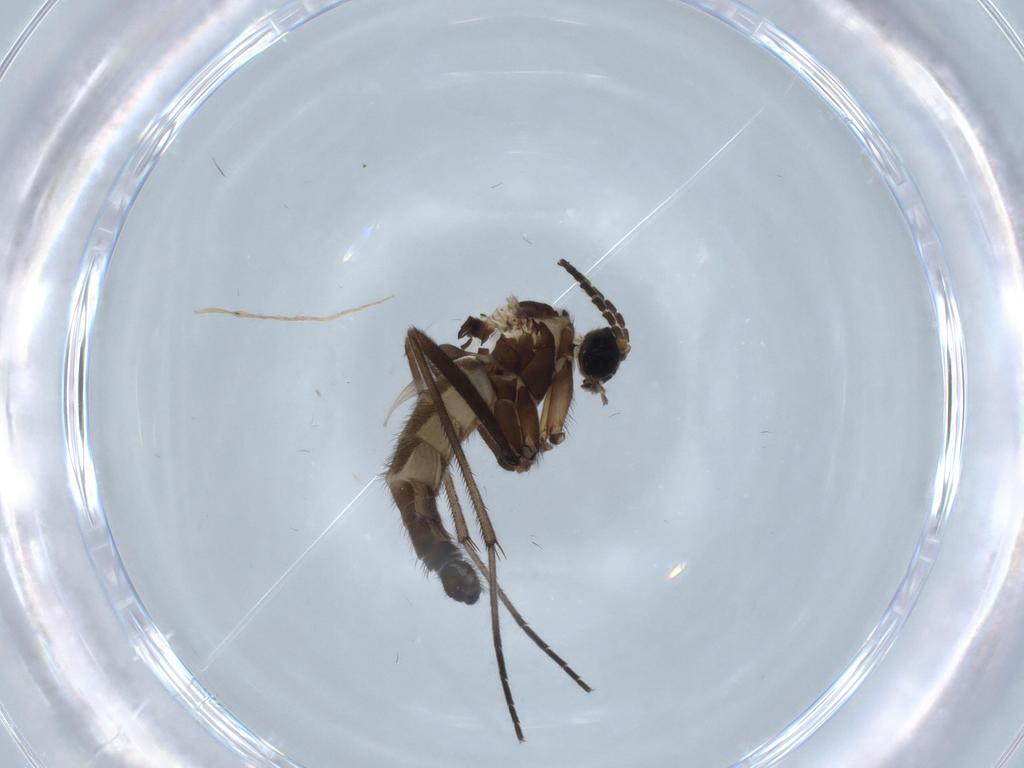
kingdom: Animalia
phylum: Arthropoda
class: Insecta
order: Diptera
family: Sciaridae
